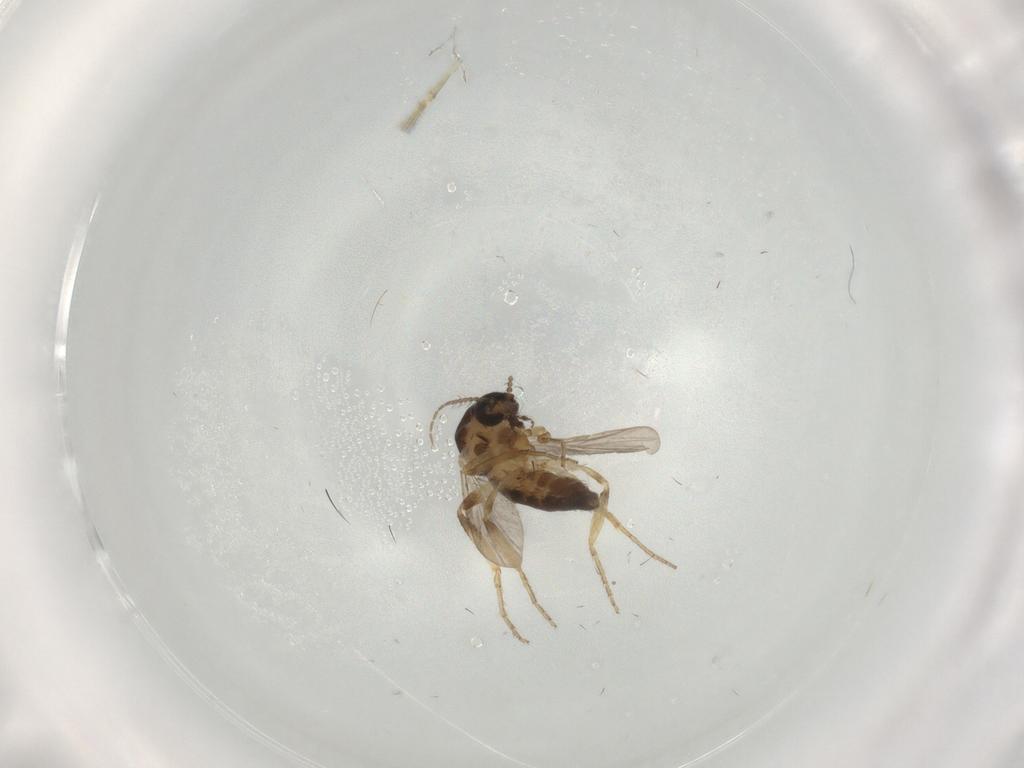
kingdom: Animalia
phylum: Arthropoda
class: Insecta
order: Diptera
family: Ceratopogonidae
